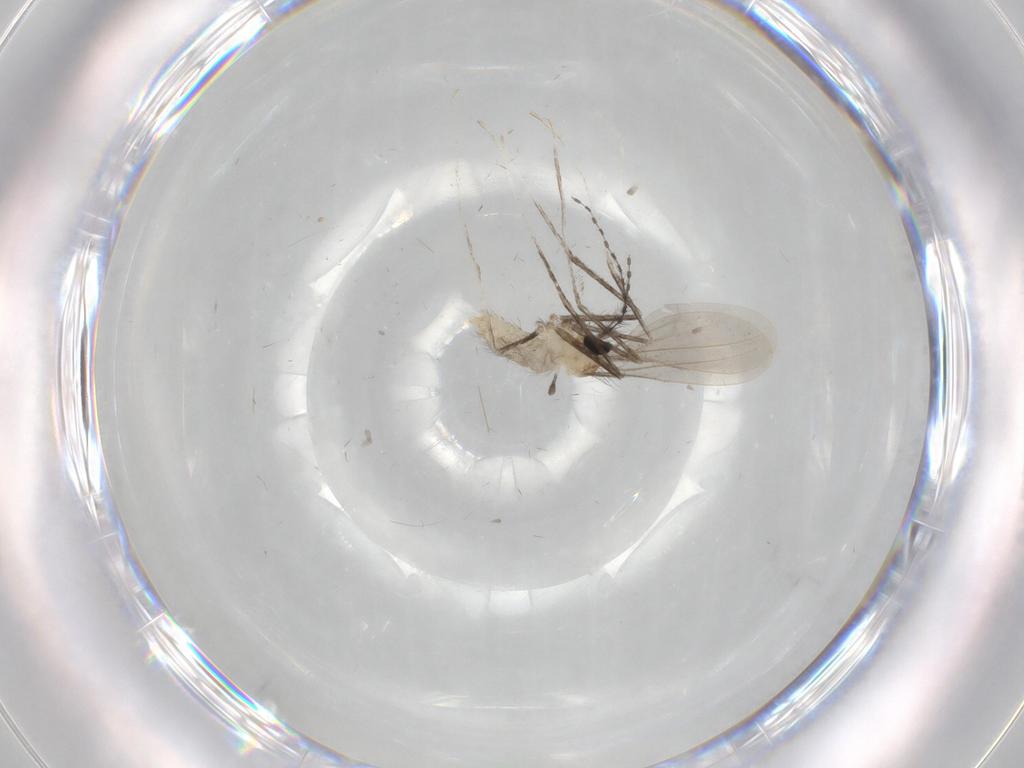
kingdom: Animalia
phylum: Arthropoda
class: Insecta
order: Diptera
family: Cecidomyiidae
